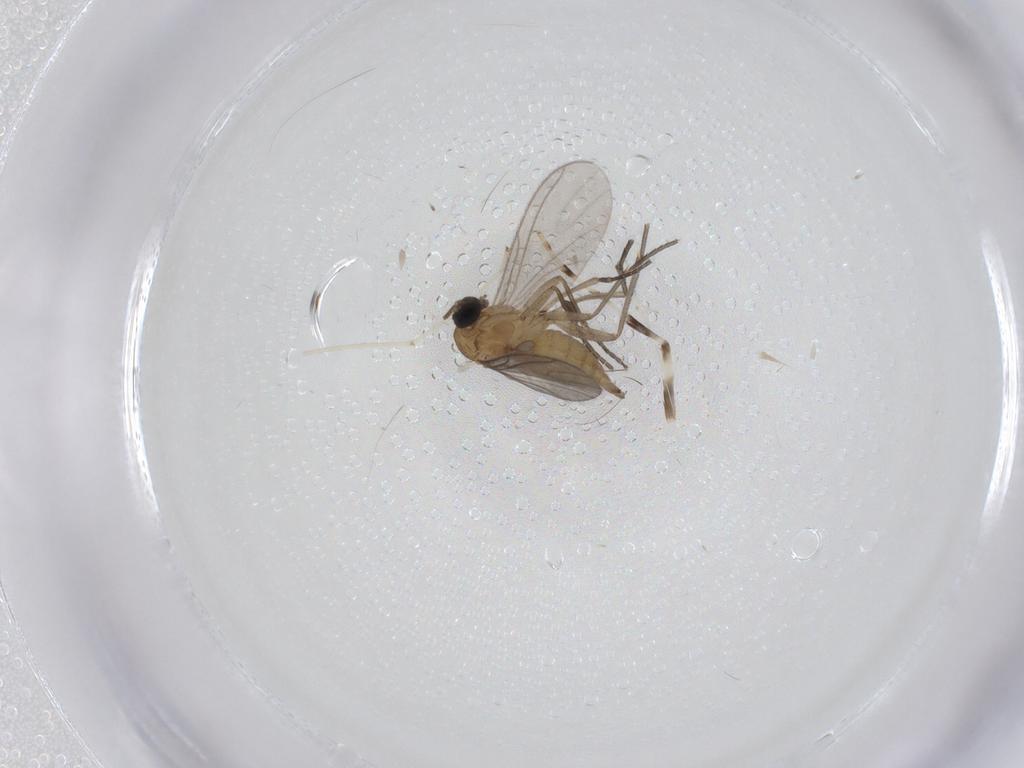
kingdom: Animalia
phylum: Arthropoda
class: Insecta
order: Diptera
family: Sciaridae
